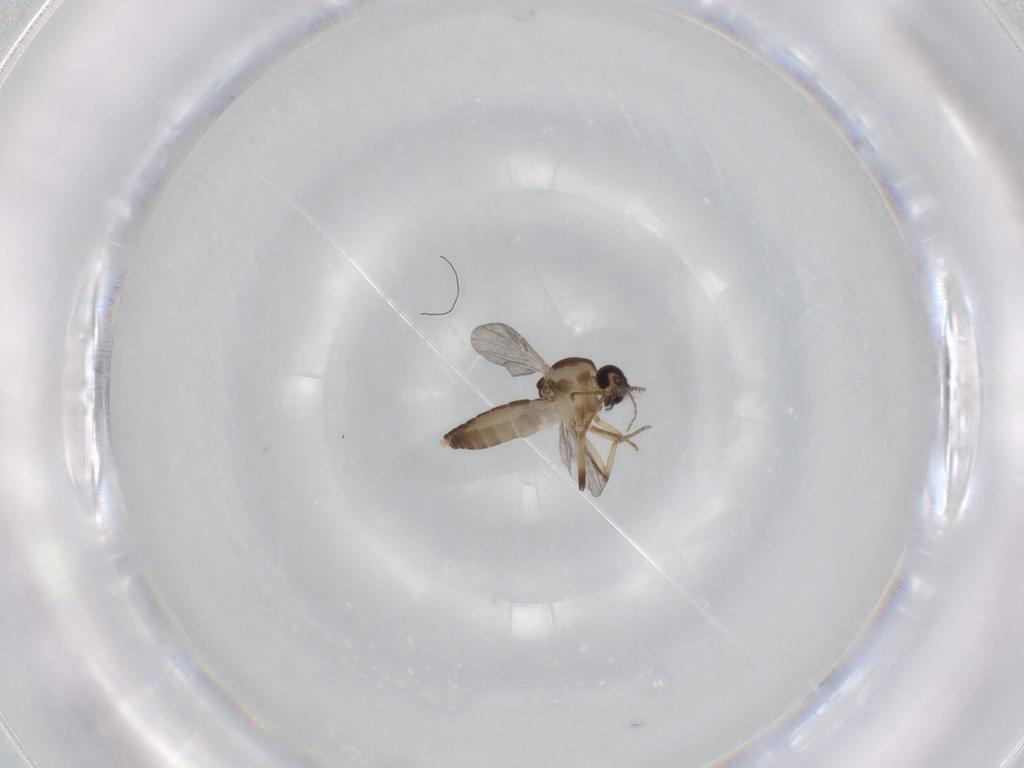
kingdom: Animalia
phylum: Arthropoda
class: Insecta
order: Diptera
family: Ceratopogonidae
